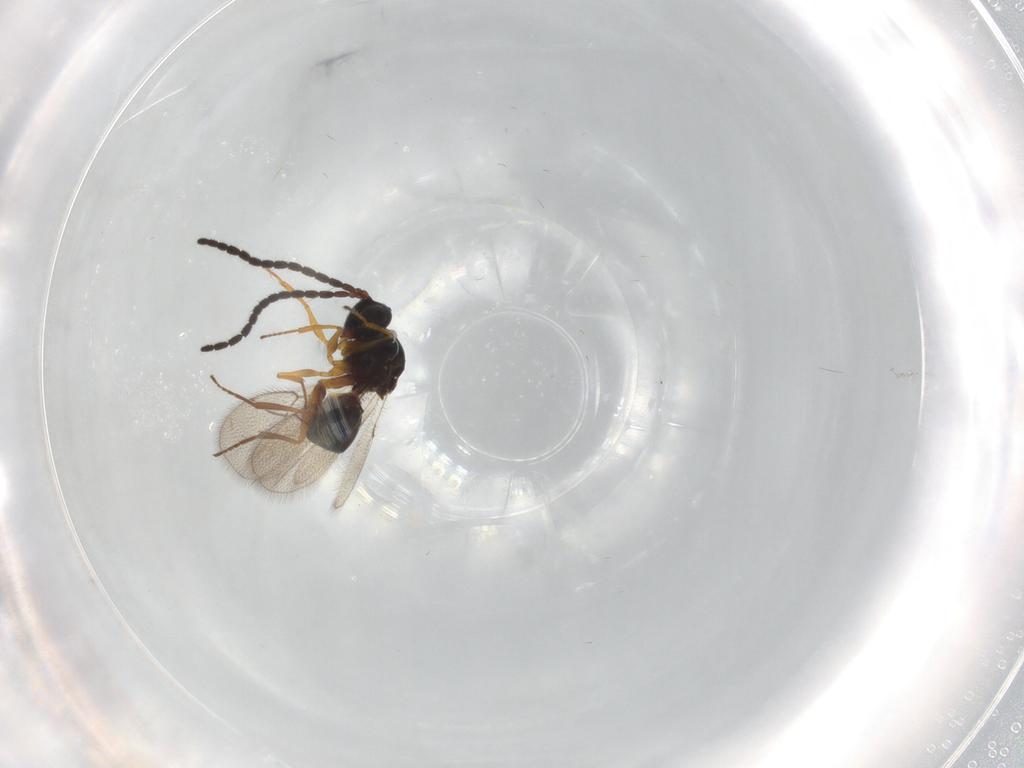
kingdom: Animalia
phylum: Arthropoda
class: Insecta
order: Hymenoptera
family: Figitidae
